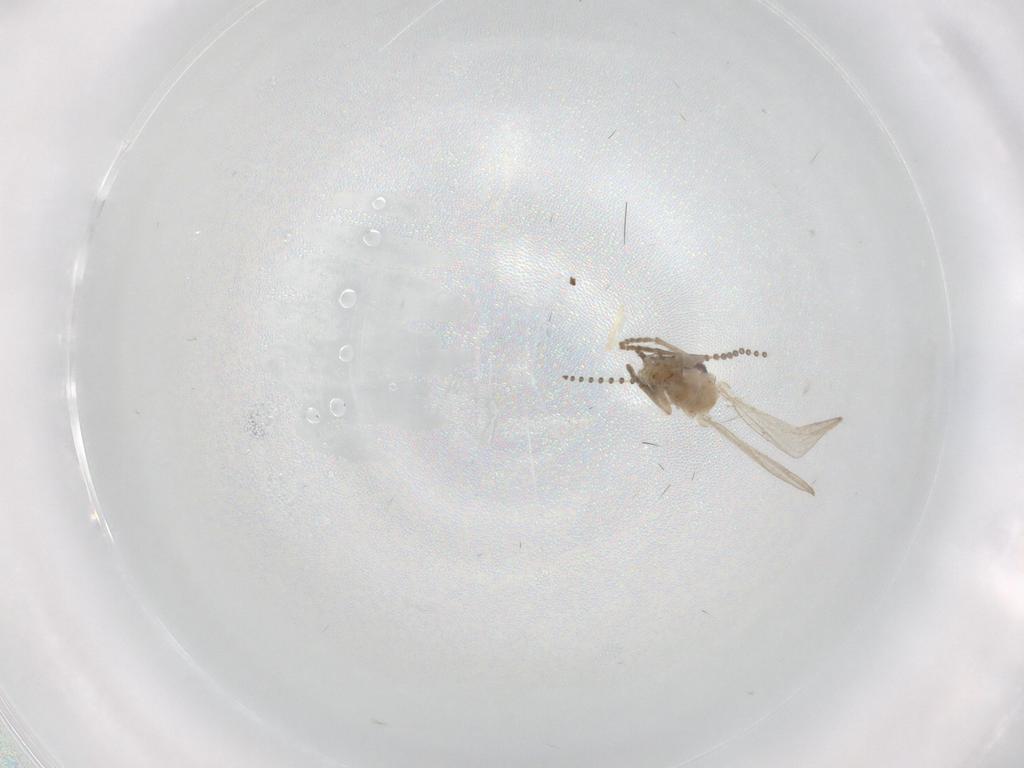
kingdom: Animalia
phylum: Arthropoda
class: Insecta
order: Diptera
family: Psychodidae
